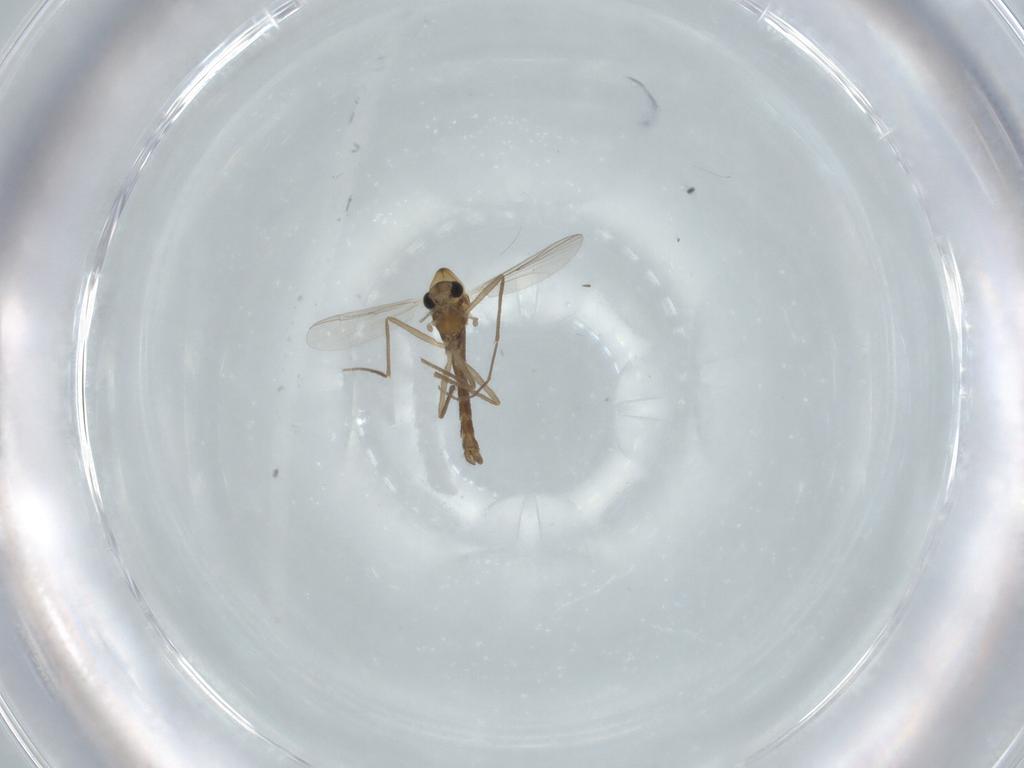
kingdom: Animalia
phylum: Arthropoda
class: Insecta
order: Diptera
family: Chironomidae
